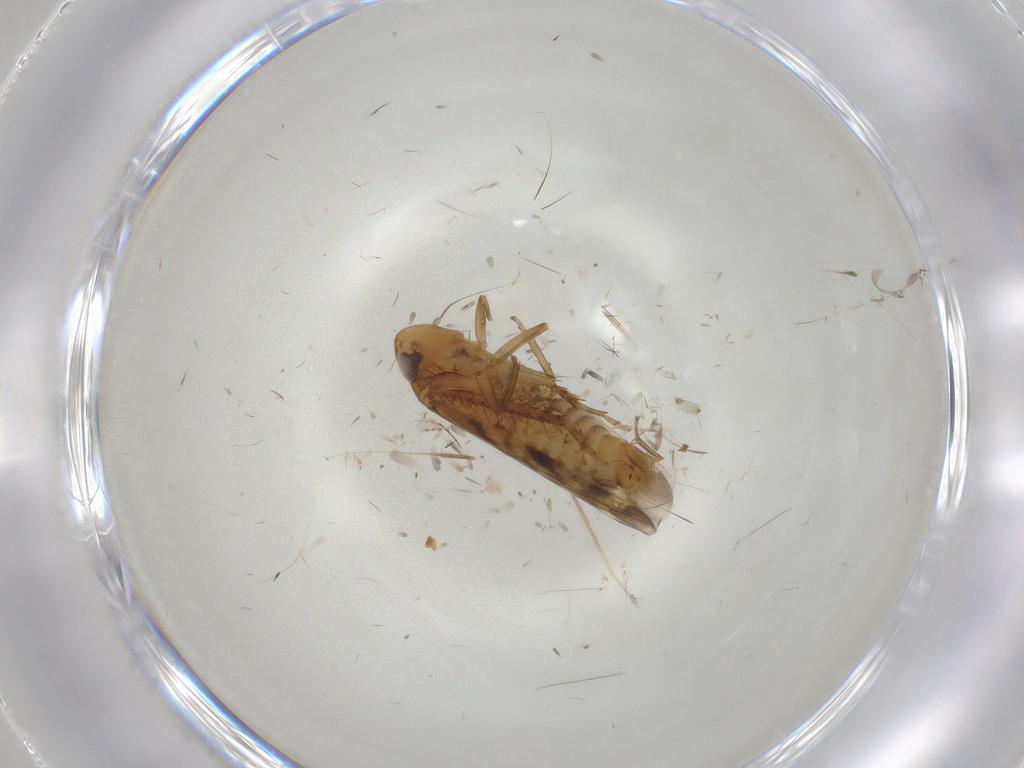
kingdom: Animalia
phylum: Arthropoda
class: Insecta
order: Hemiptera
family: Cicadellidae
